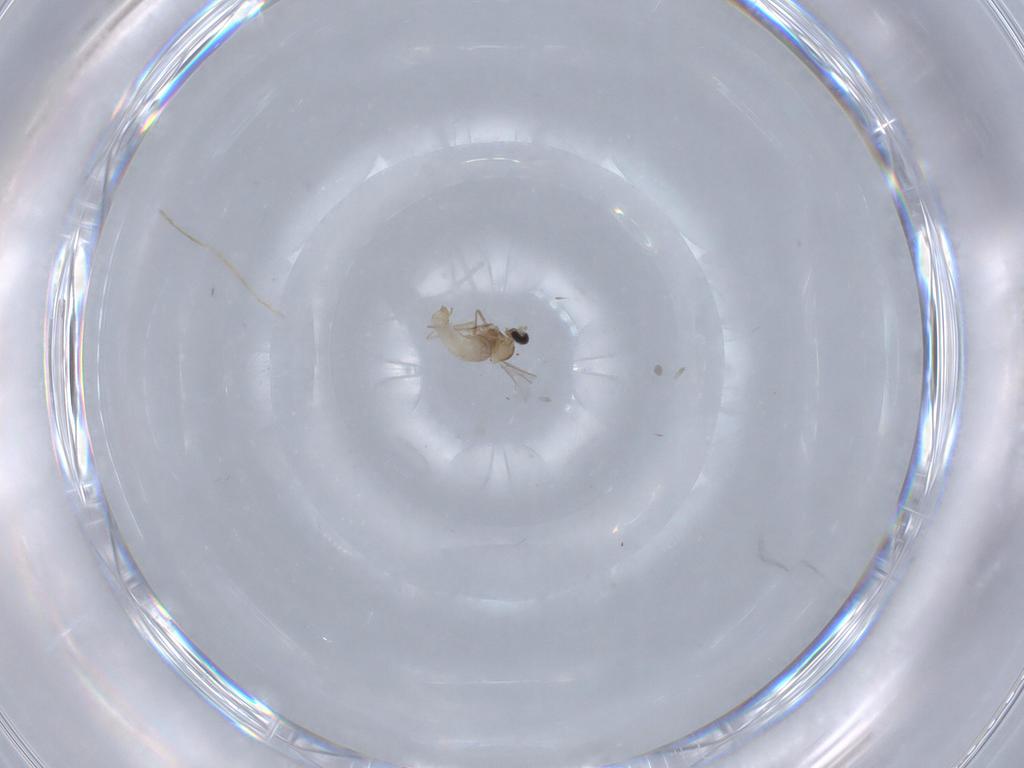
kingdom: Animalia
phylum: Arthropoda
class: Insecta
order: Diptera
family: Cecidomyiidae
